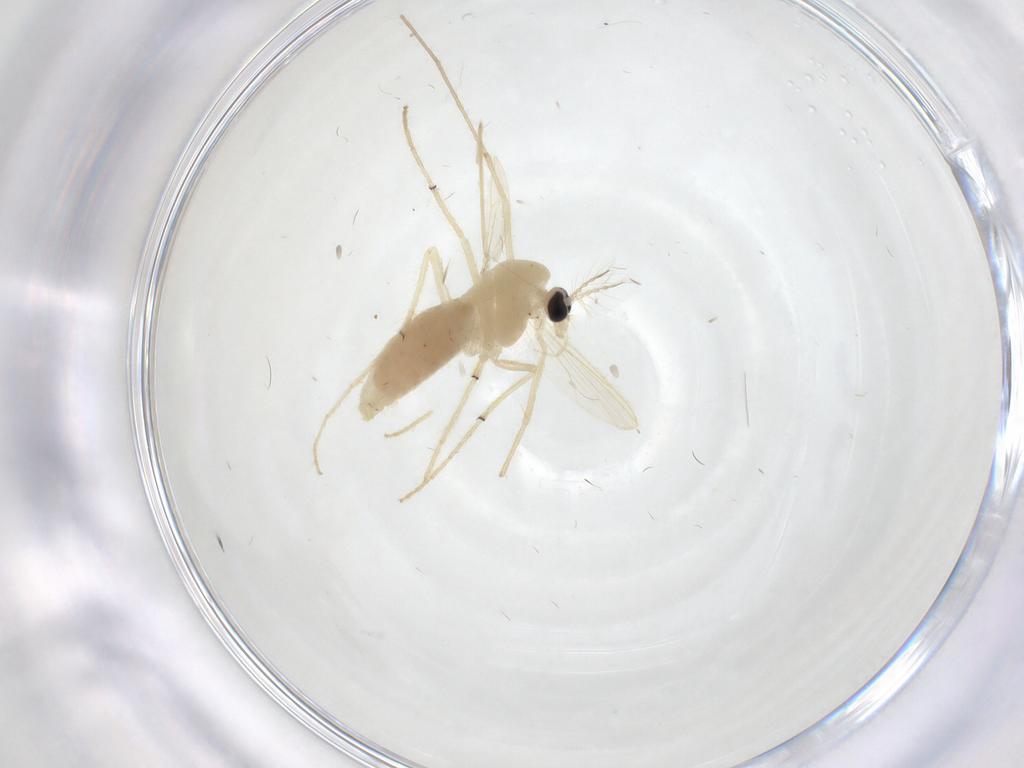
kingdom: Animalia
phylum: Arthropoda
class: Insecta
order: Diptera
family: Chironomidae
